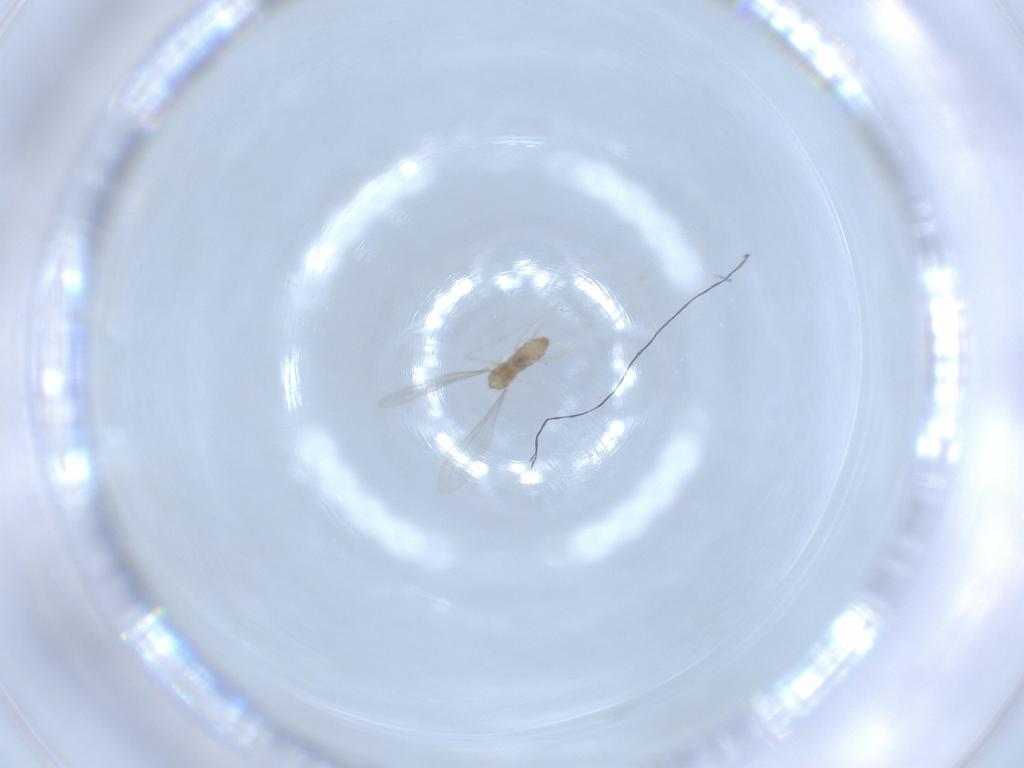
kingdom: Animalia
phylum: Arthropoda
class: Insecta
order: Diptera
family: Cecidomyiidae
